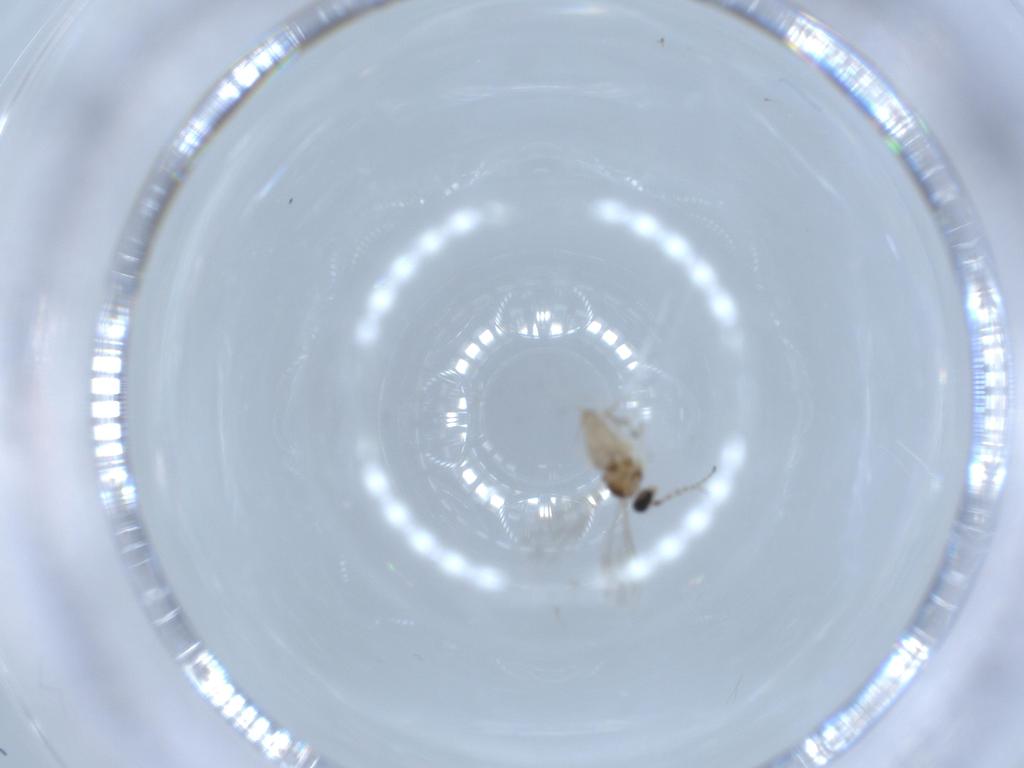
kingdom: Animalia
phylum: Arthropoda
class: Insecta
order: Diptera
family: Cecidomyiidae
